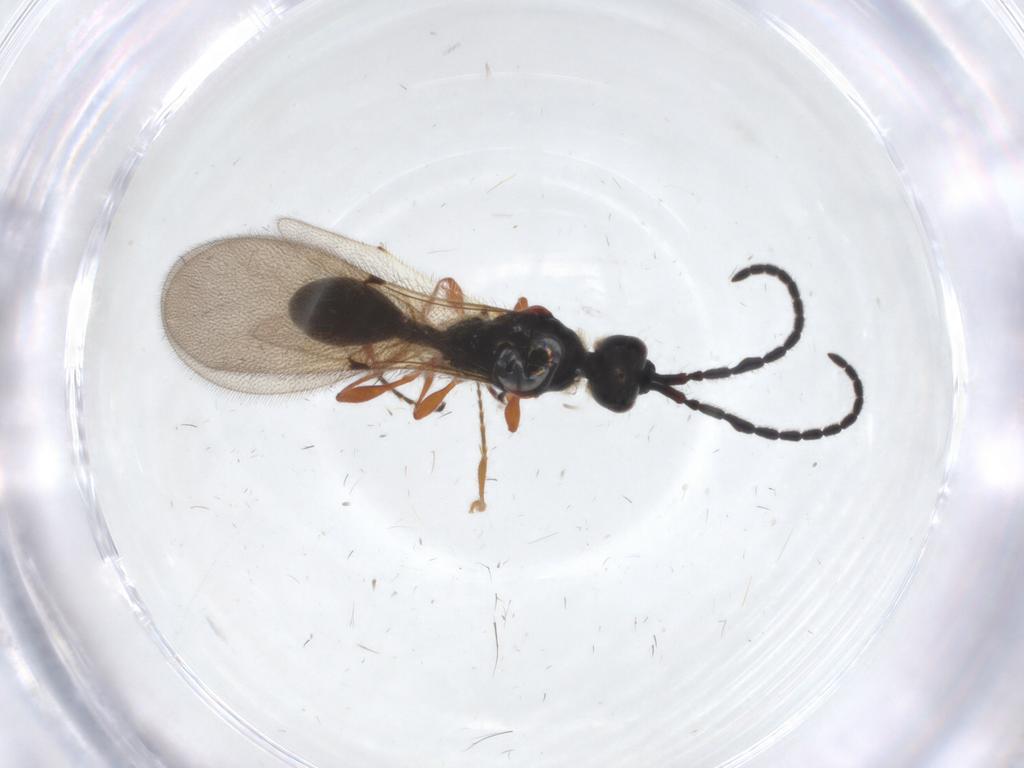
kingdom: Animalia
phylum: Arthropoda
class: Insecta
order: Hymenoptera
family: Diapriidae
